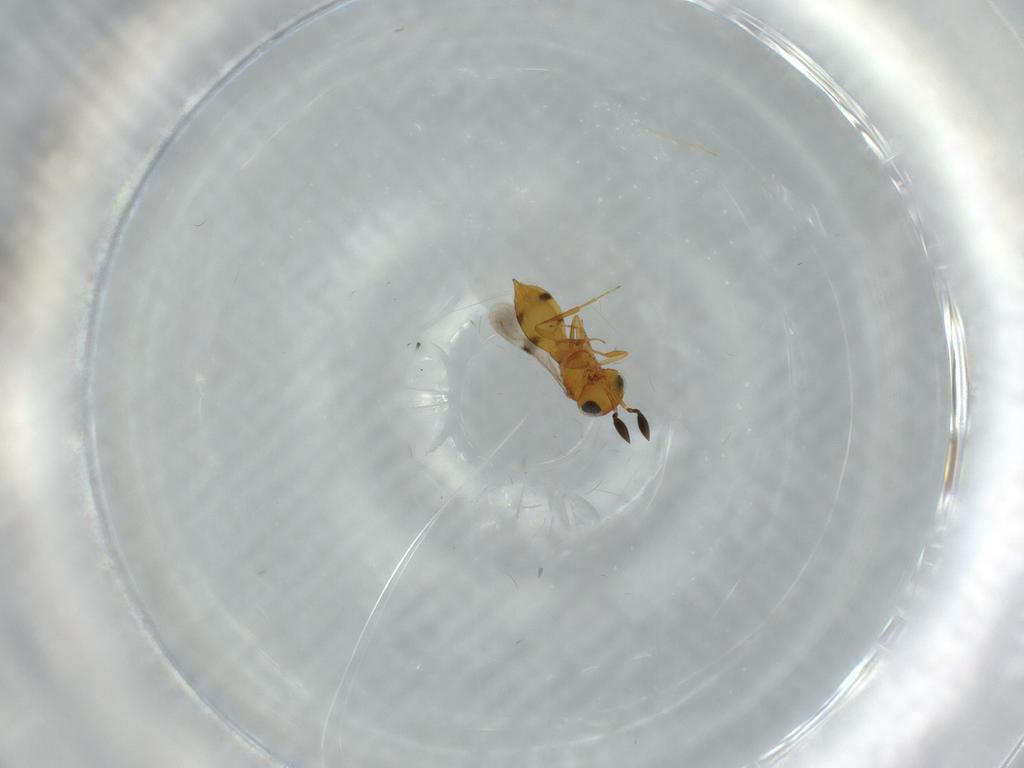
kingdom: Animalia
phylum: Arthropoda
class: Insecta
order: Hymenoptera
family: Scelionidae
